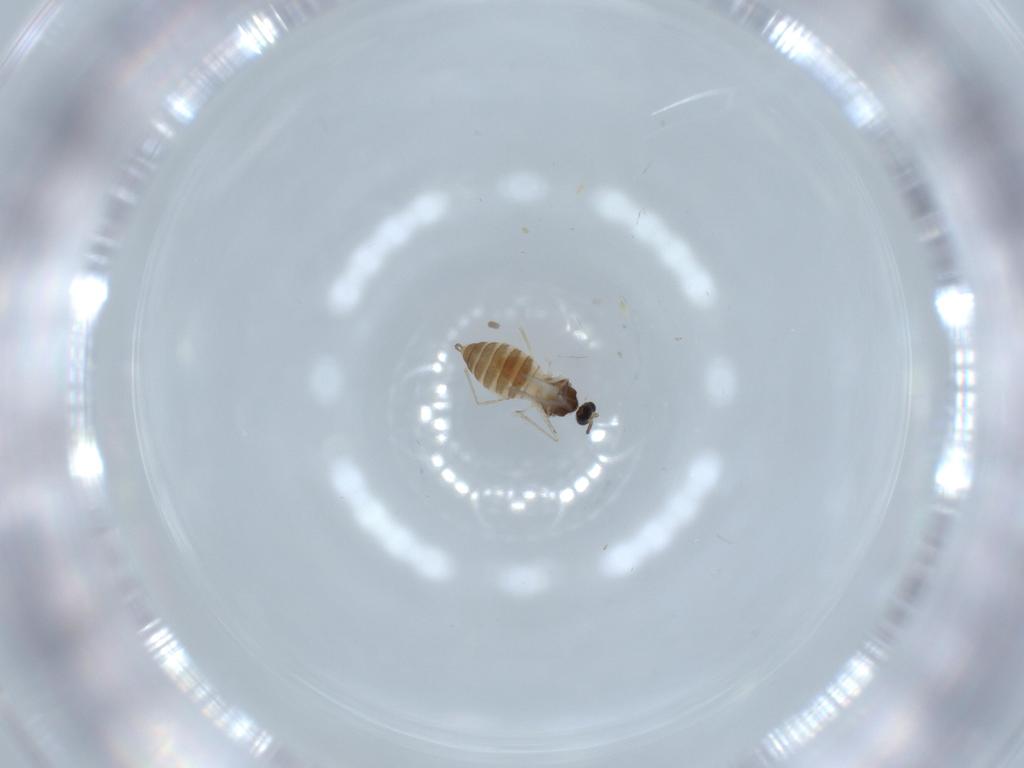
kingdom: Animalia
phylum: Arthropoda
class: Insecta
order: Diptera
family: Cecidomyiidae
